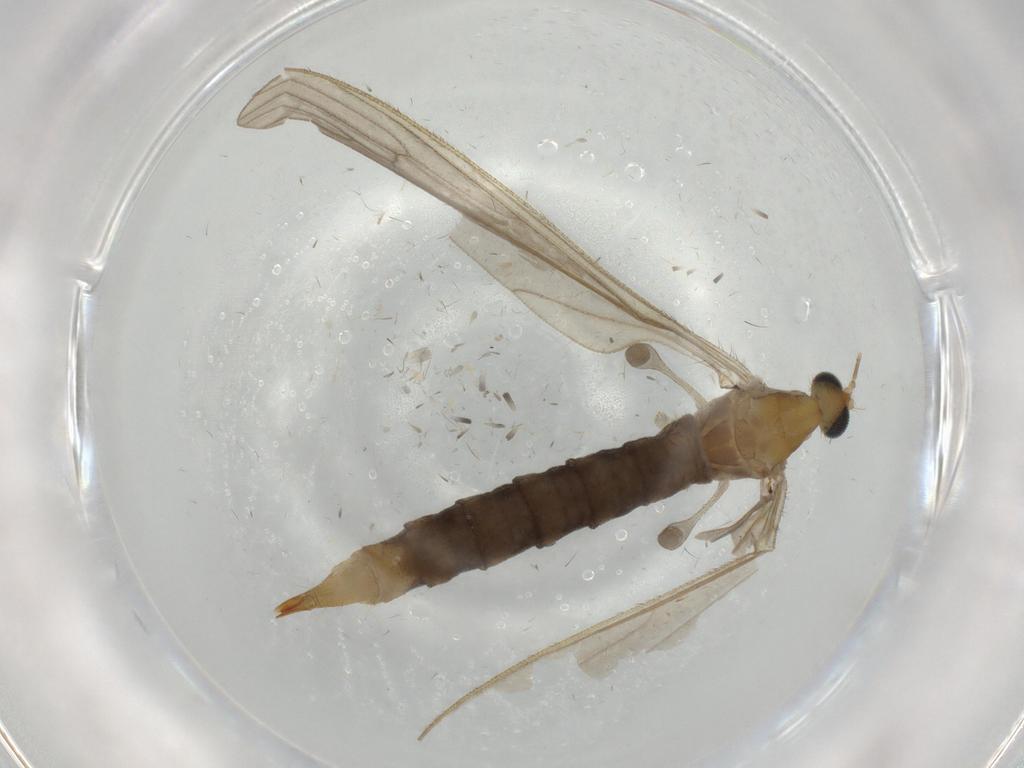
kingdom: Animalia
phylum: Arthropoda
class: Insecta
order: Diptera
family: Limoniidae
